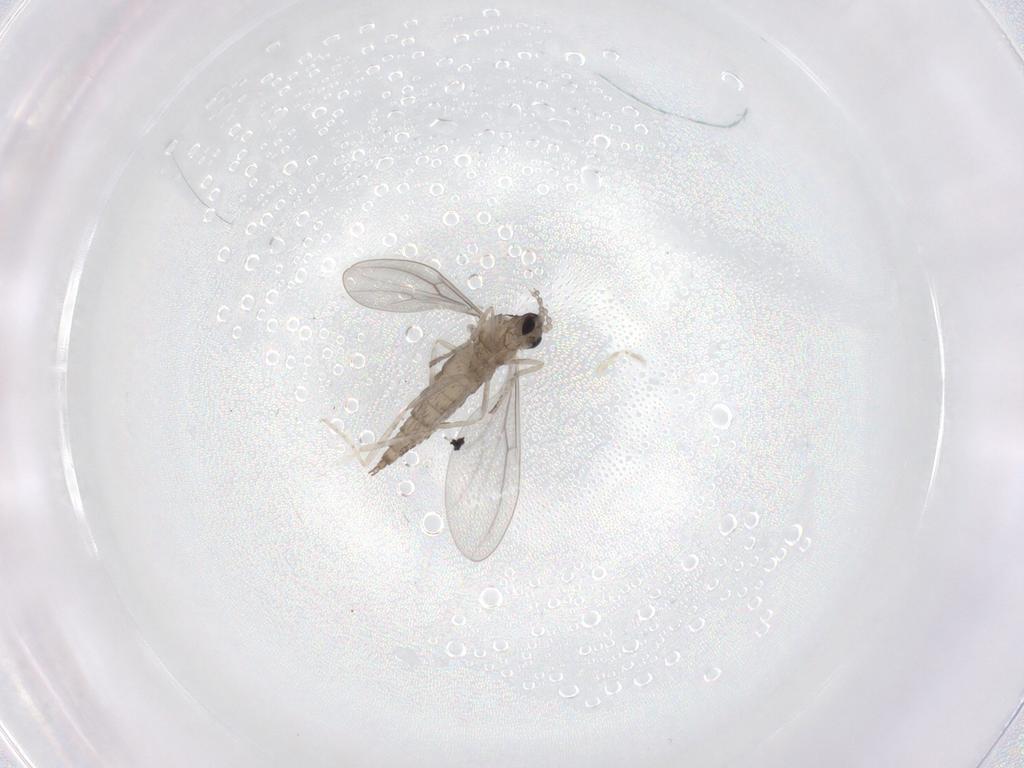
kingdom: Animalia
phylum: Arthropoda
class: Insecta
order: Diptera
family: Cecidomyiidae
